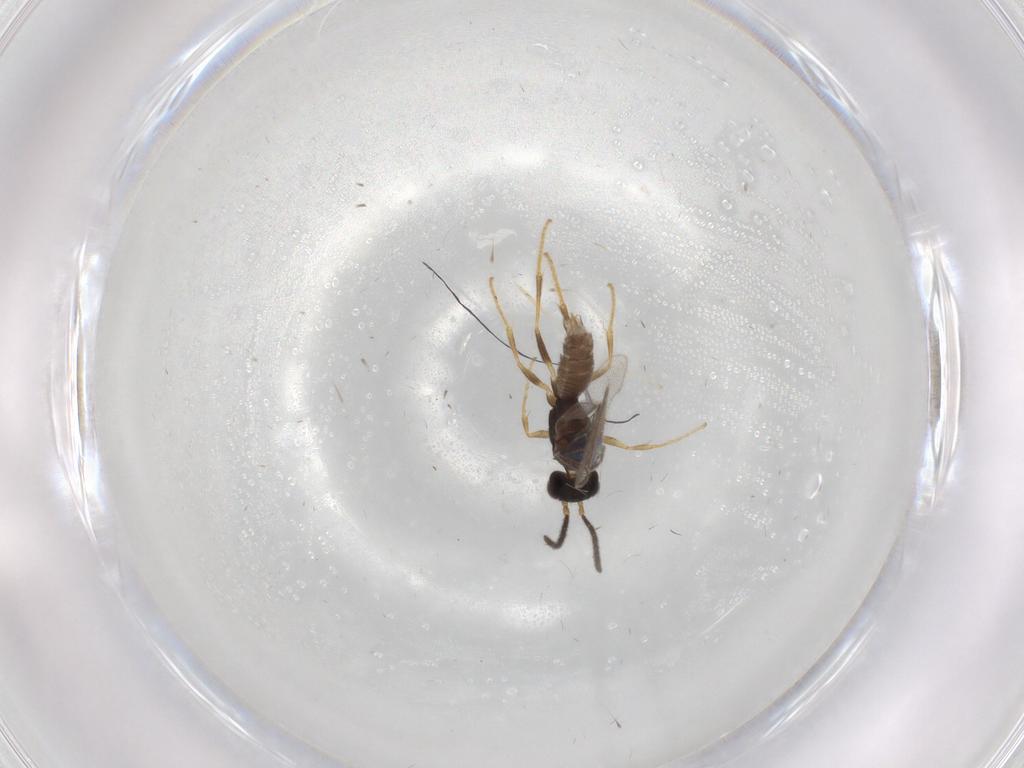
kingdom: Animalia
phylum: Arthropoda
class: Insecta
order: Hymenoptera
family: Dryinidae
